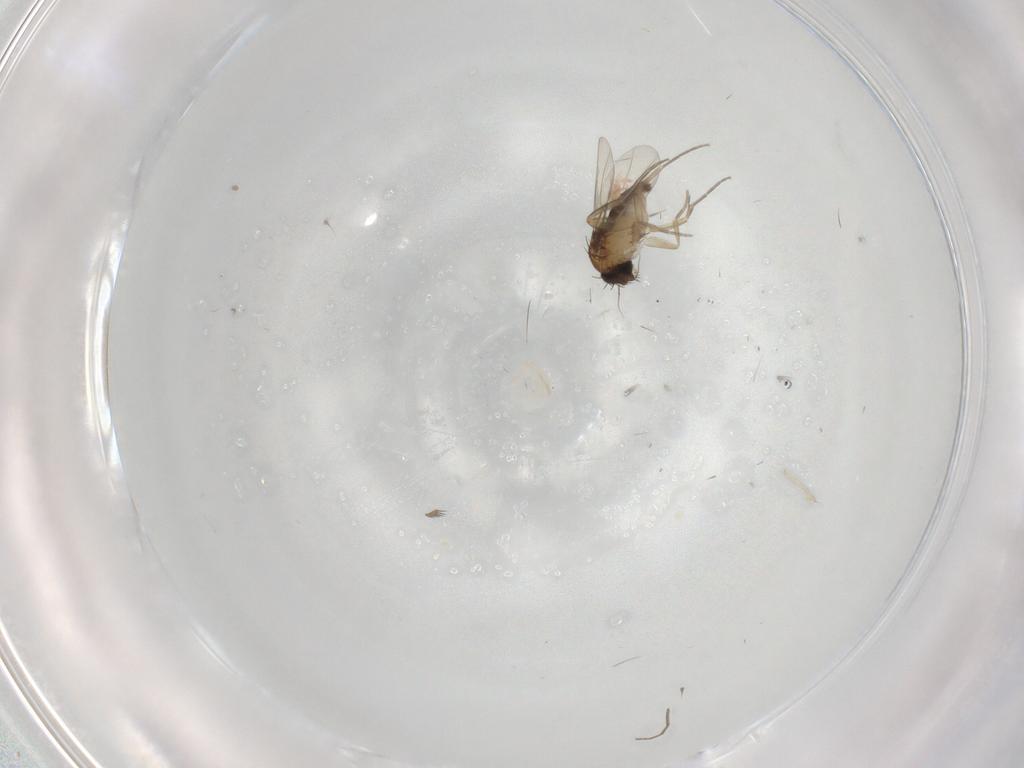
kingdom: Animalia
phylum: Arthropoda
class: Insecta
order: Diptera
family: Phoridae
